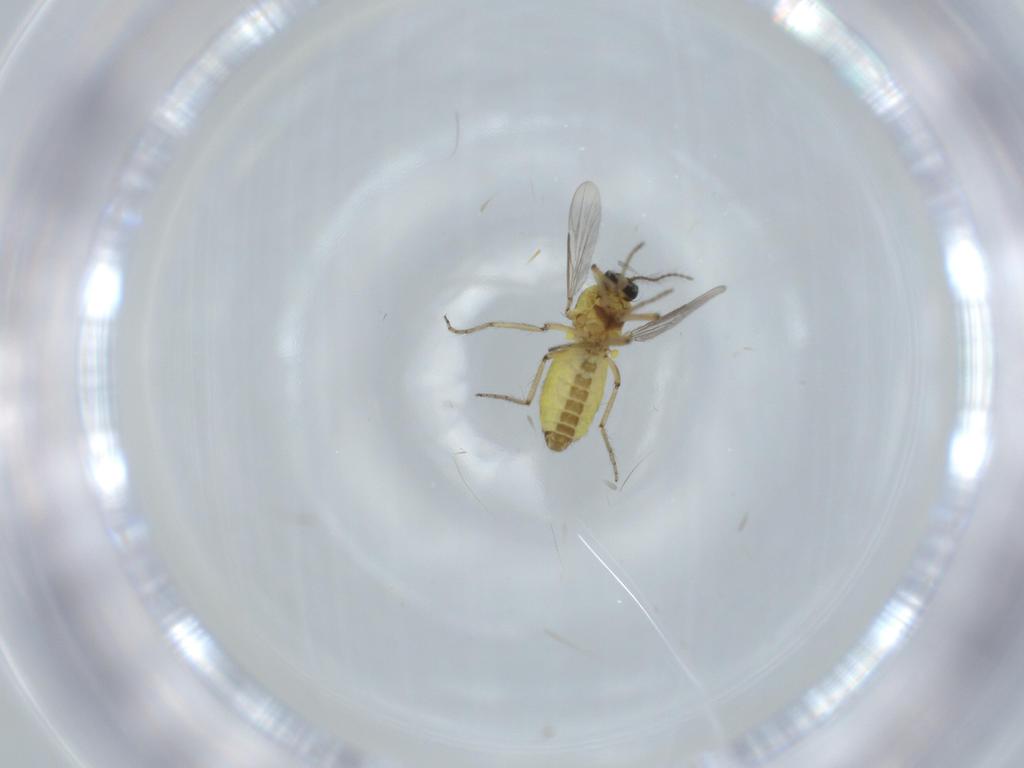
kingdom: Animalia
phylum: Arthropoda
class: Insecta
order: Diptera
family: Ceratopogonidae
